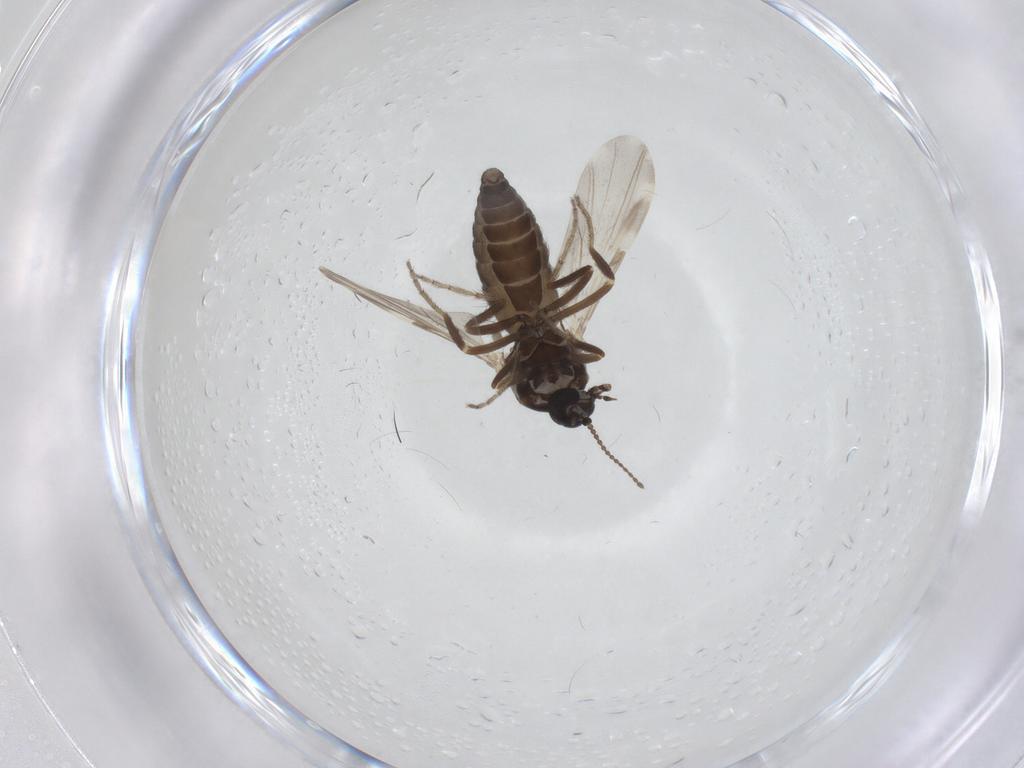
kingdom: Animalia
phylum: Arthropoda
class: Insecta
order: Diptera
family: Ceratopogonidae
